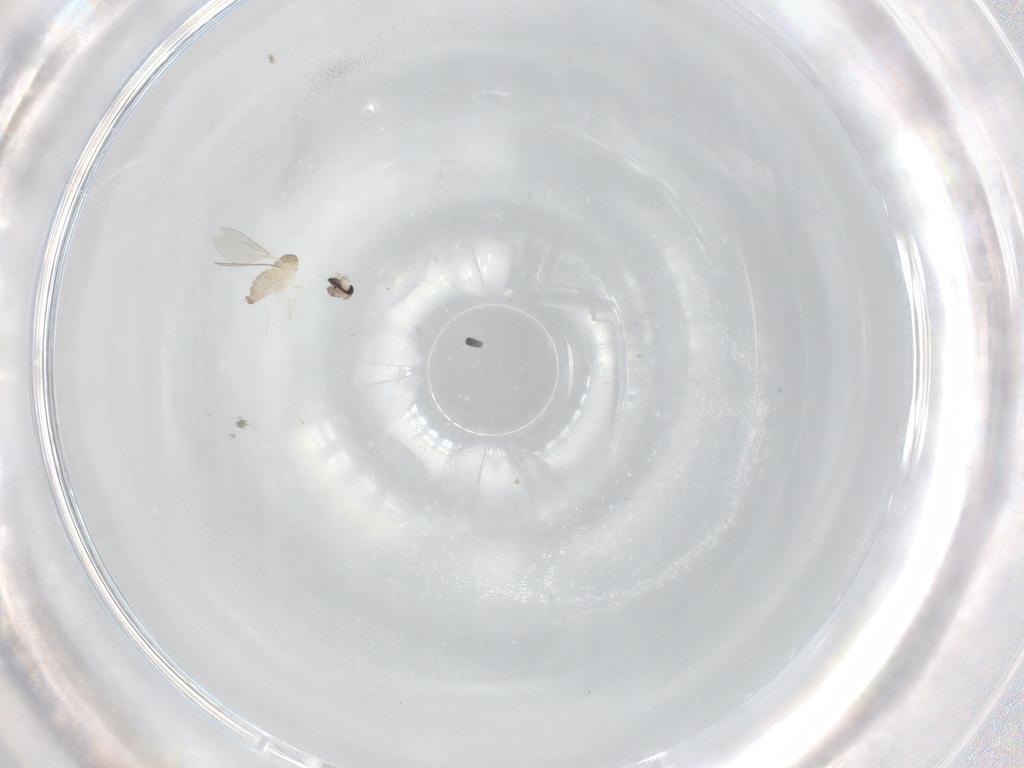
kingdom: Animalia
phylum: Arthropoda
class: Insecta
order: Diptera
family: Cecidomyiidae
